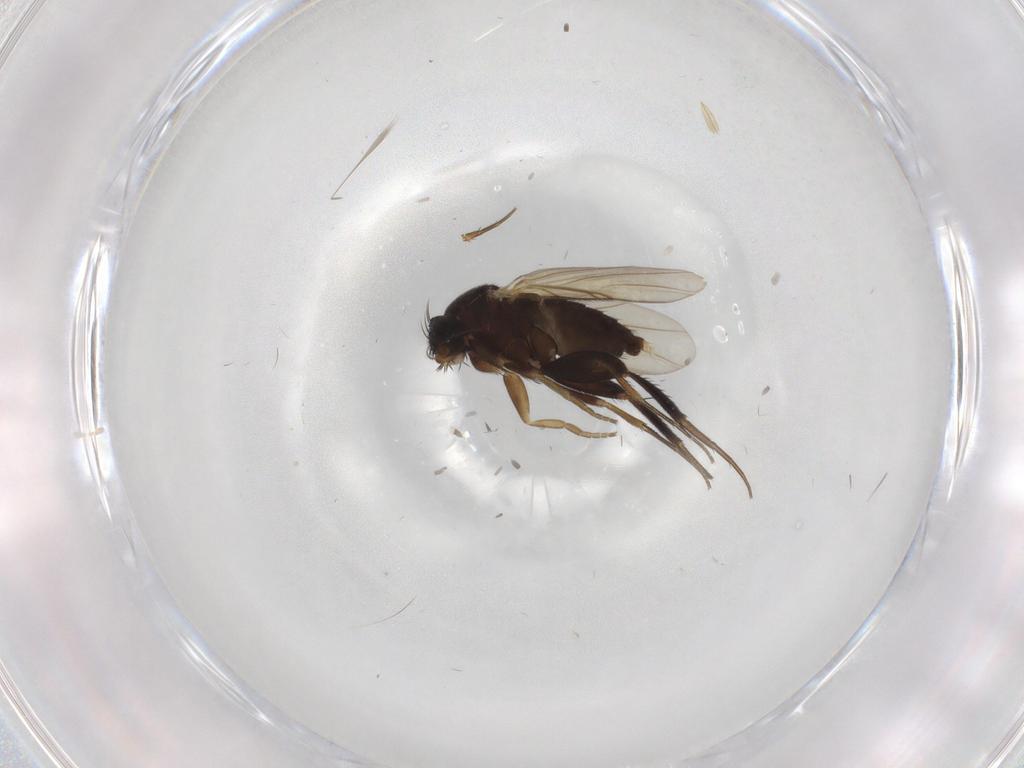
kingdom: Animalia
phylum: Arthropoda
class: Insecta
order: Diptera
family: Phoridae
